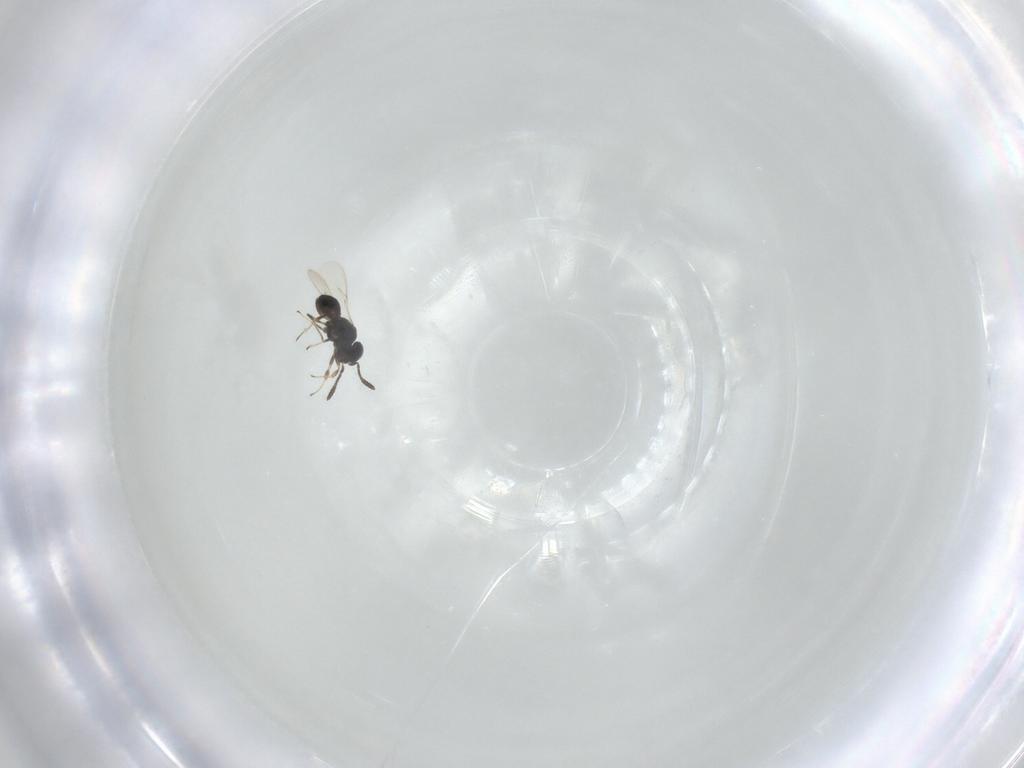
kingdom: Animalia
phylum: Arthropoda
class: Insecta
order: Hymenoptera
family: Scelionidae
